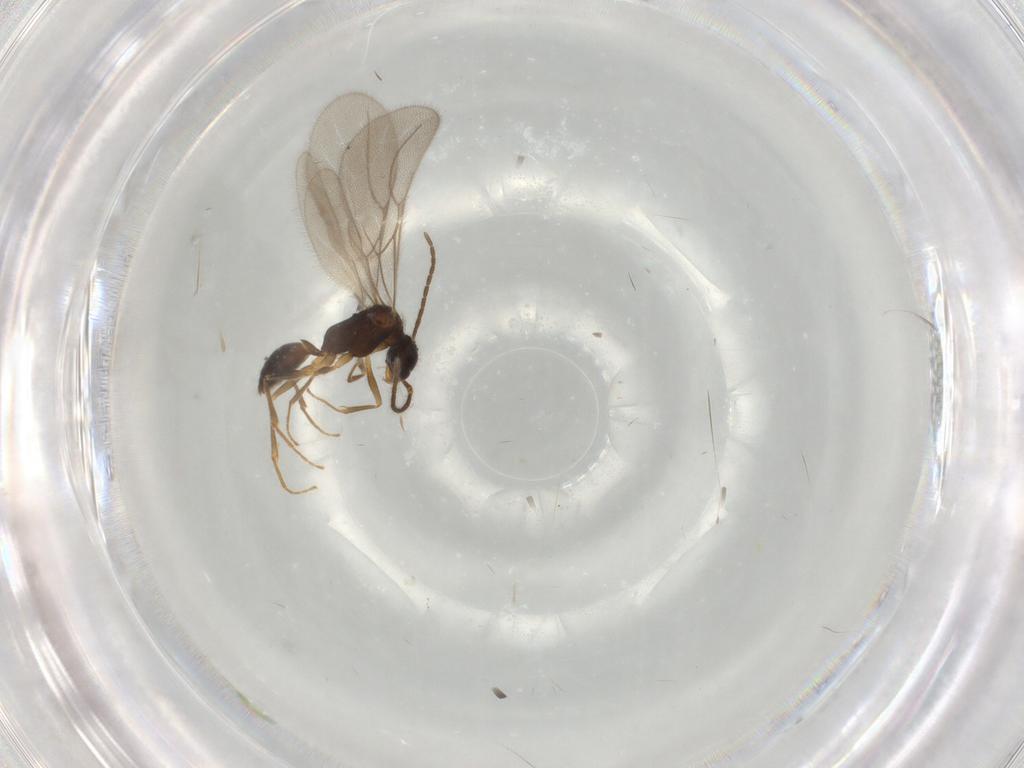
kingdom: Animalia
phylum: Arthropoda
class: Insecta
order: Hymenoptera
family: Bethylidae
